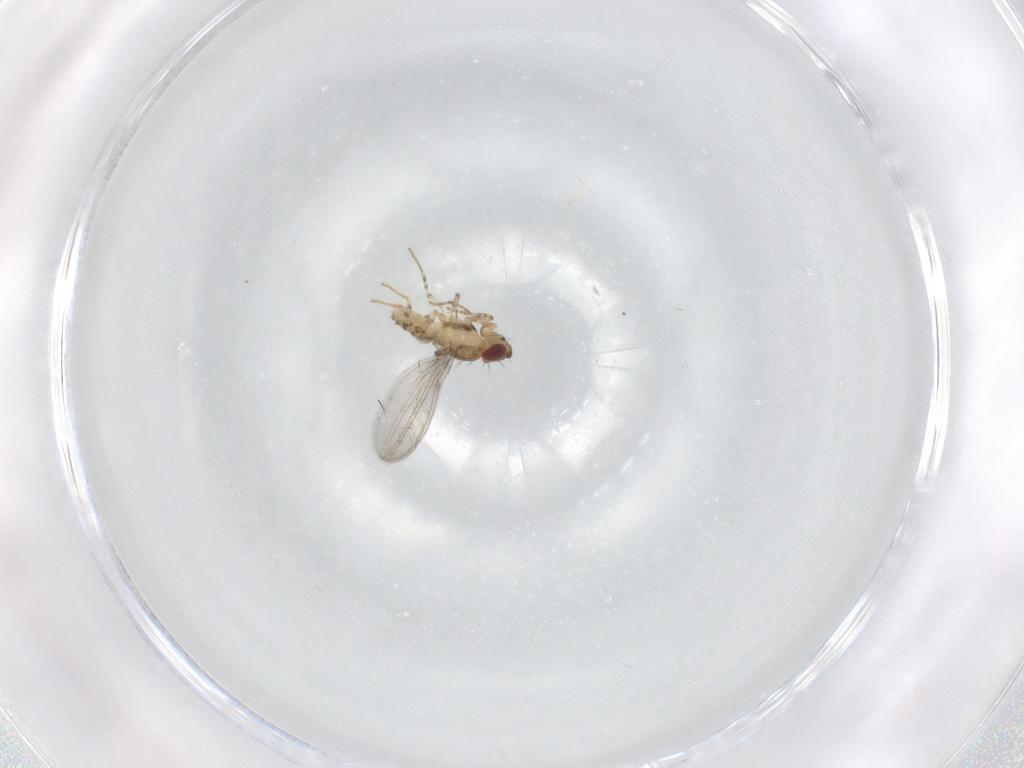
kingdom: Animalia
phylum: Arthropoda
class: Insecta
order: Diptera
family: Asteiidae
